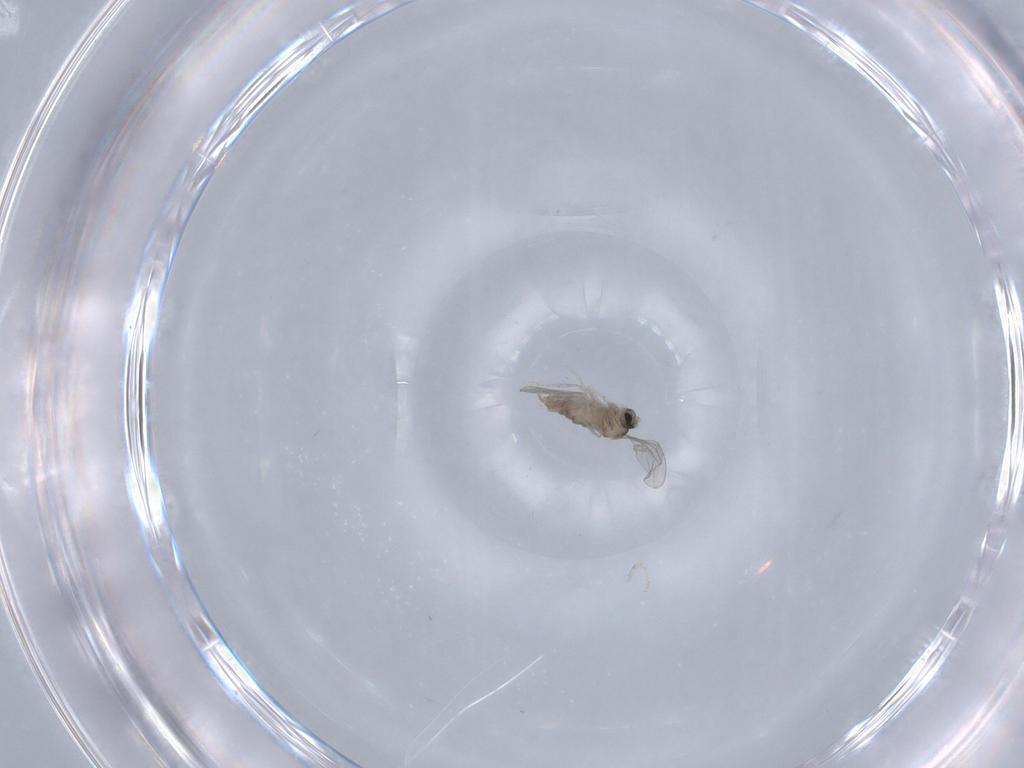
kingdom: Animalia
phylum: Arthropoda
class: Insecta
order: Diptera
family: Cecidomyiidae
